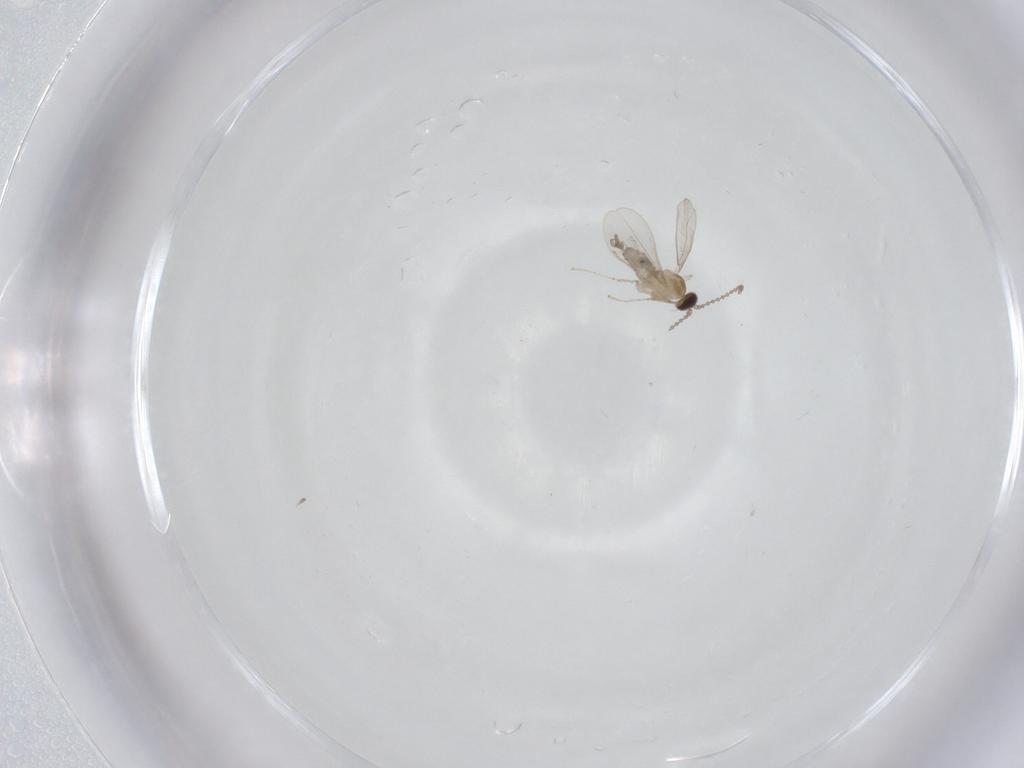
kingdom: Animalia
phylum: Arthropoda
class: Insecta
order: Diptera
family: Cecidomyiidae
